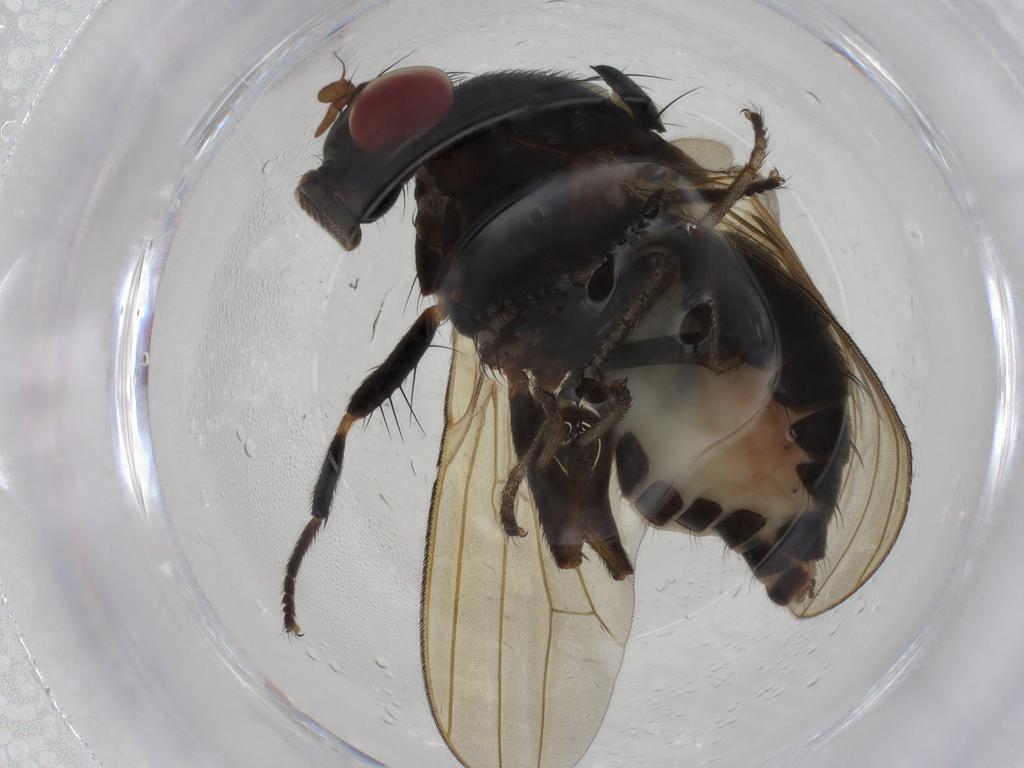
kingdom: Animalia
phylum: Arthropoda
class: Insecta
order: Diptera
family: Lauxaniidae
